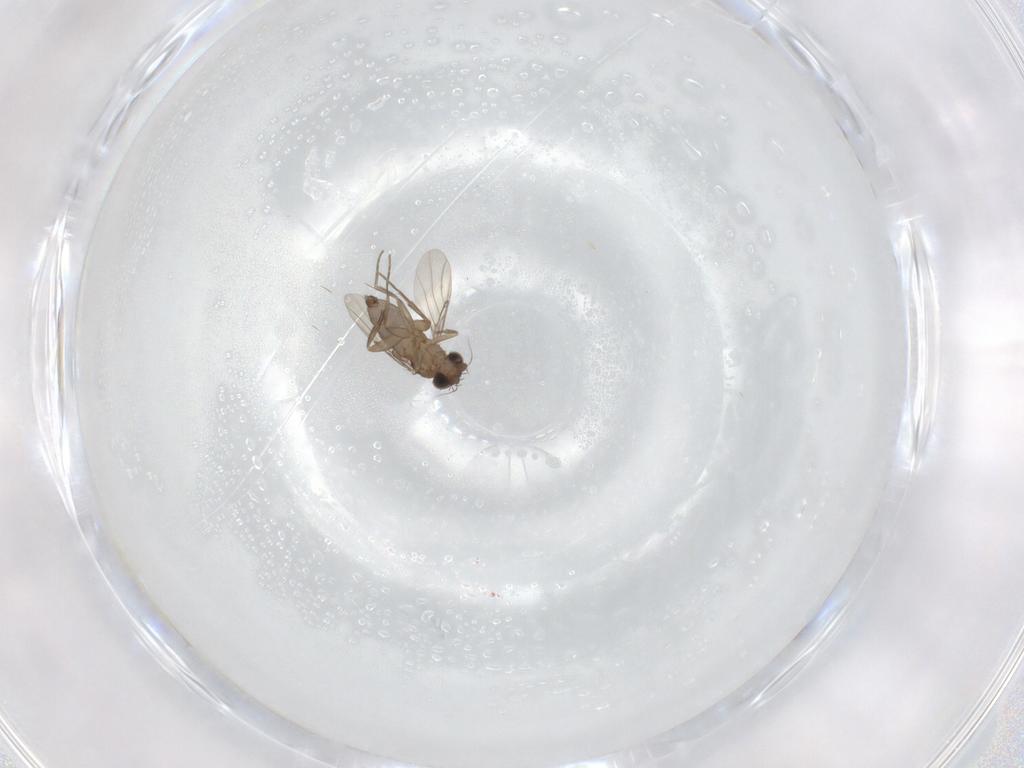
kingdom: Animalia
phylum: Arthropoda
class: Insecta
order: Diptera
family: Phoridae
